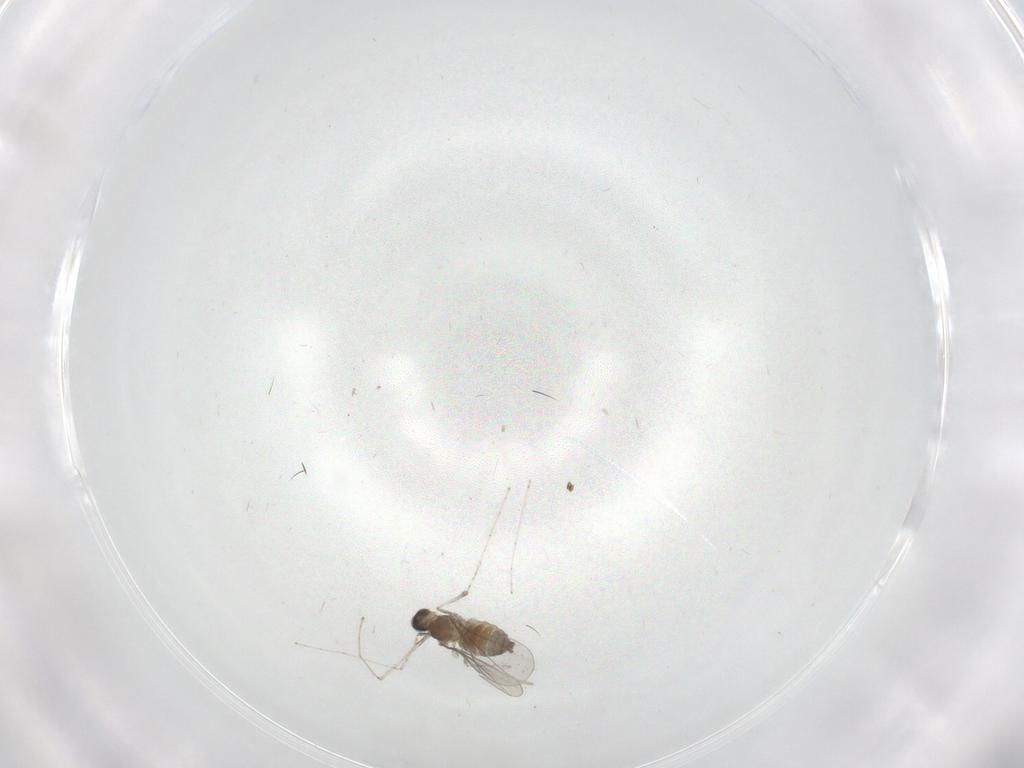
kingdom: Animalia
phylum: Arthropoda
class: Insecta
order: Diptera
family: Cecidomyiidae
